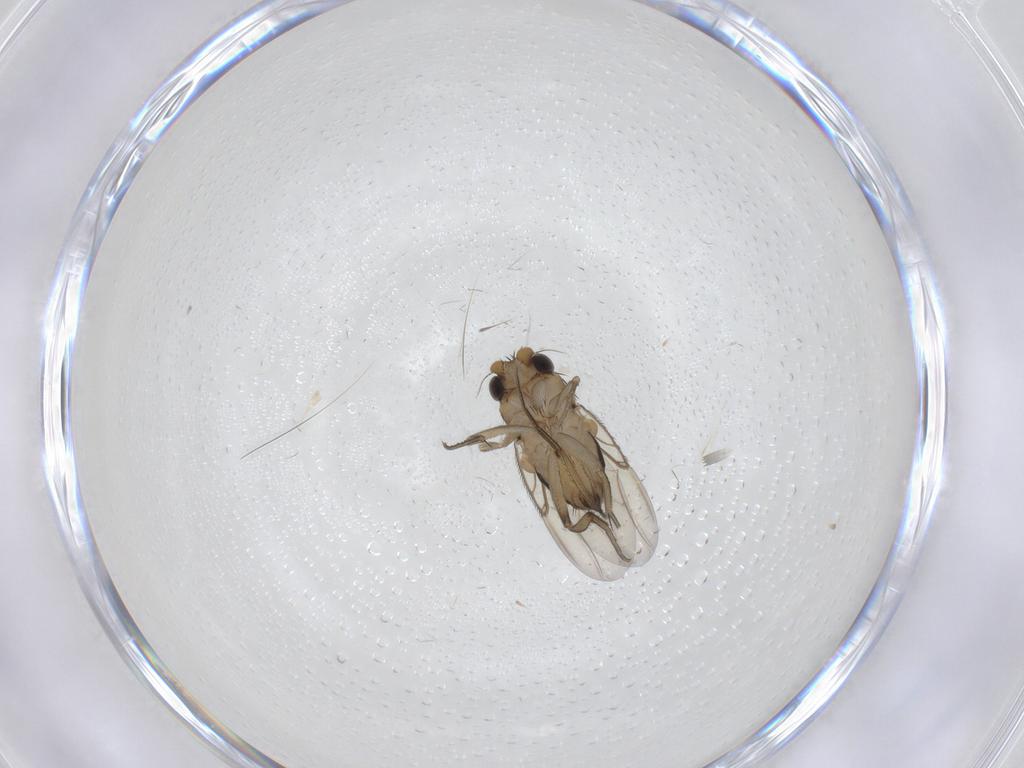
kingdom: Animalia
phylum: Arthropoda
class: Insecta
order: Diptera
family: Phoridae
